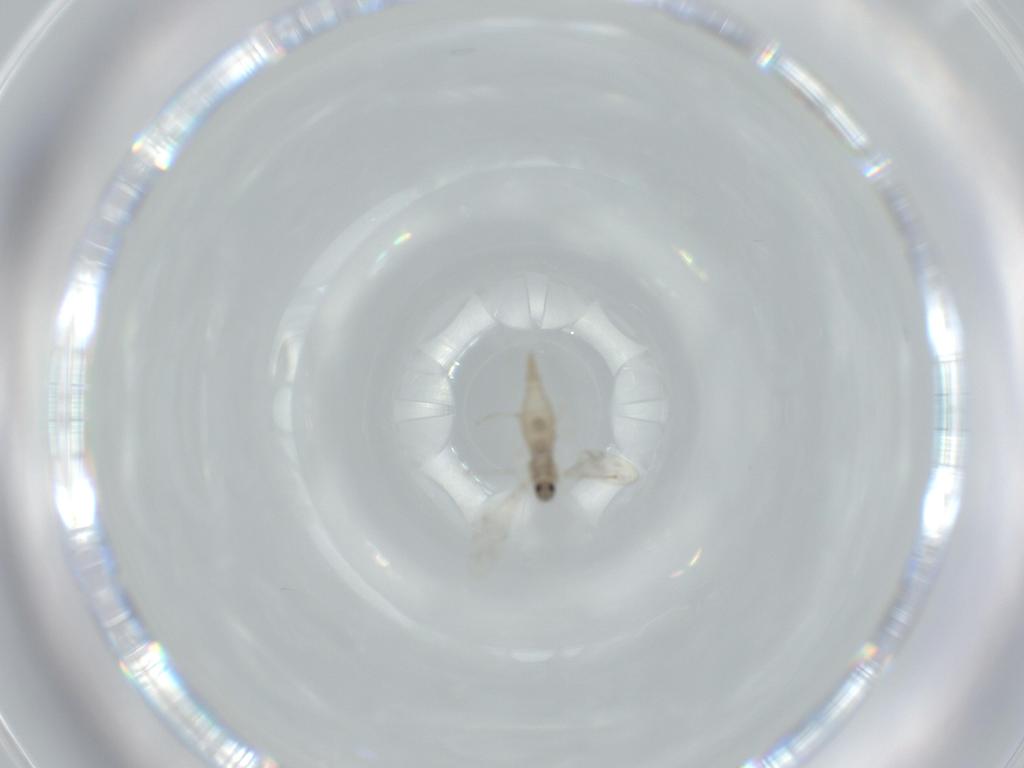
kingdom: Animalia
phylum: Arthropoda
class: Insecta
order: Diptera
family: Cecidomyiidae
